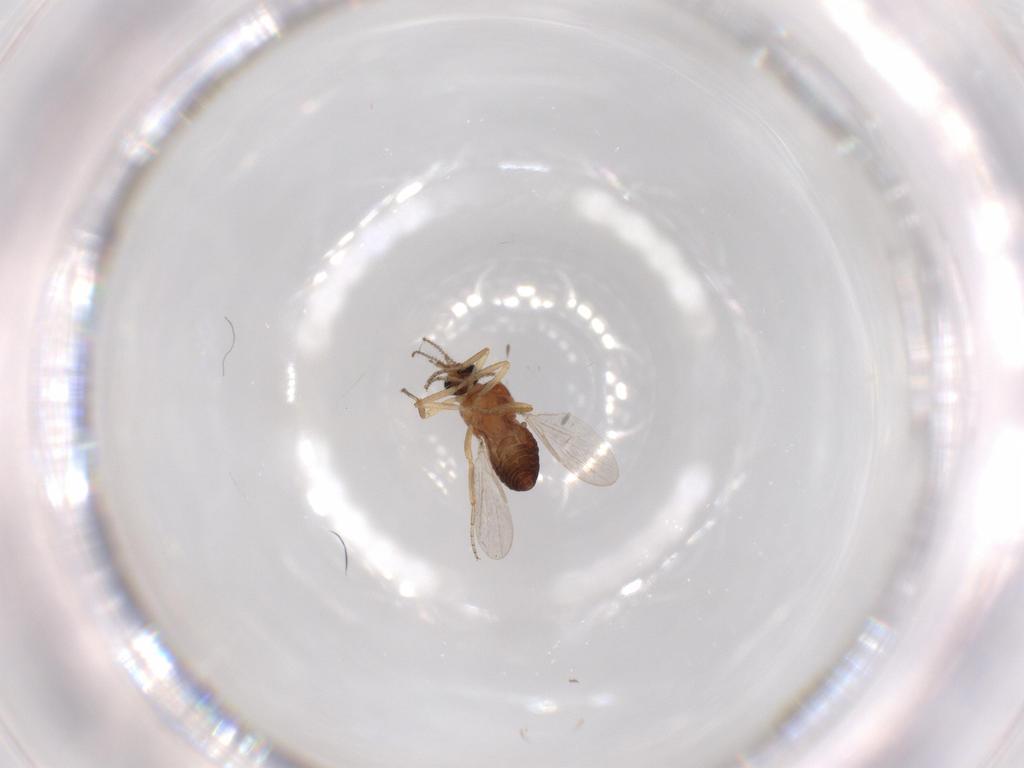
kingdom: Animalia
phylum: Arthropoda
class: Insecta
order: Diptera
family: Ceratopogonidae
